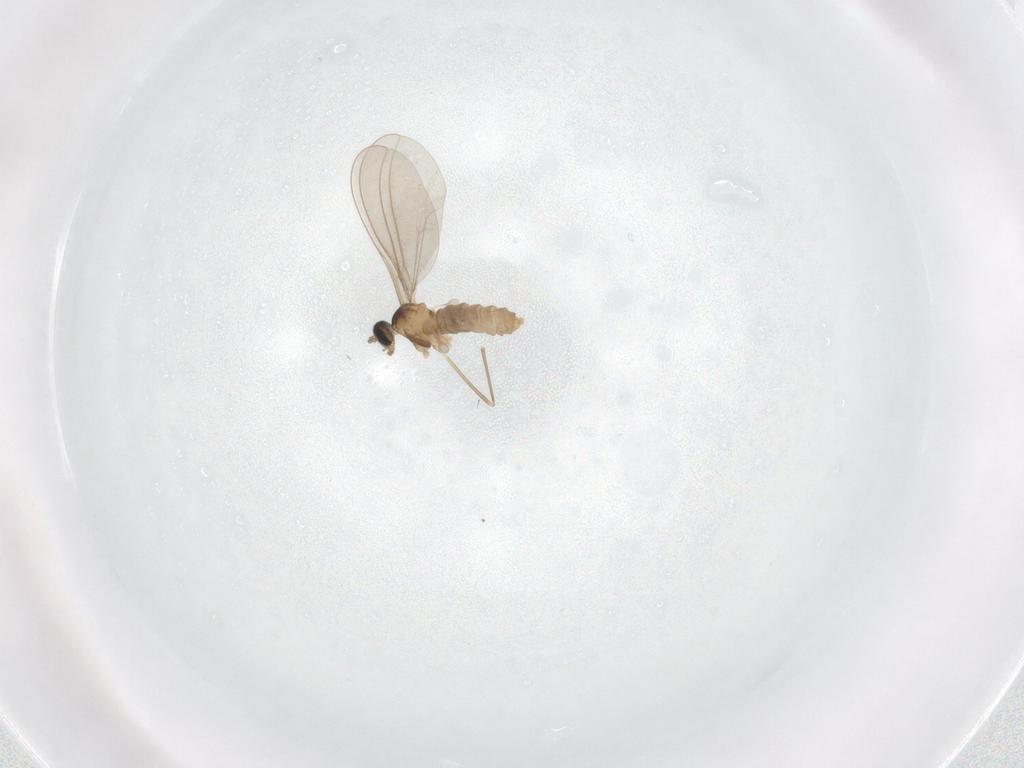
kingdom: Animalia
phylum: Arthropoda
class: Insecta
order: Diptera
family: Cecidomyiidae
